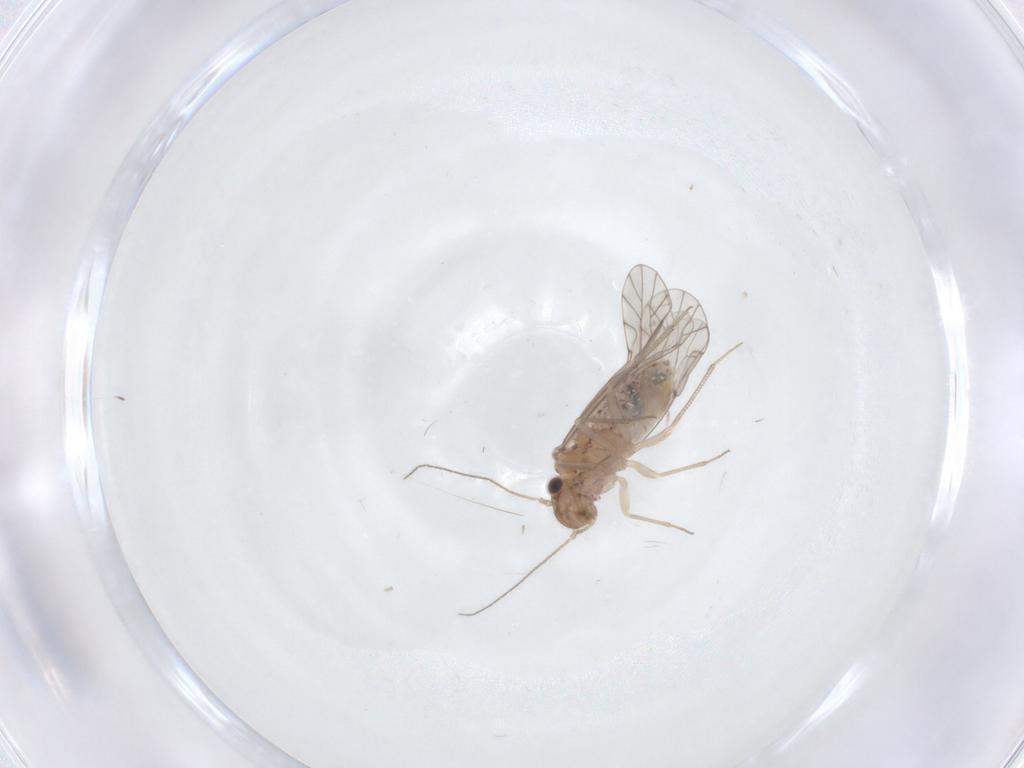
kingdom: Animalia
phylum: Arthropoda
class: Insecta
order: Psocodea
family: Lachesillidae
